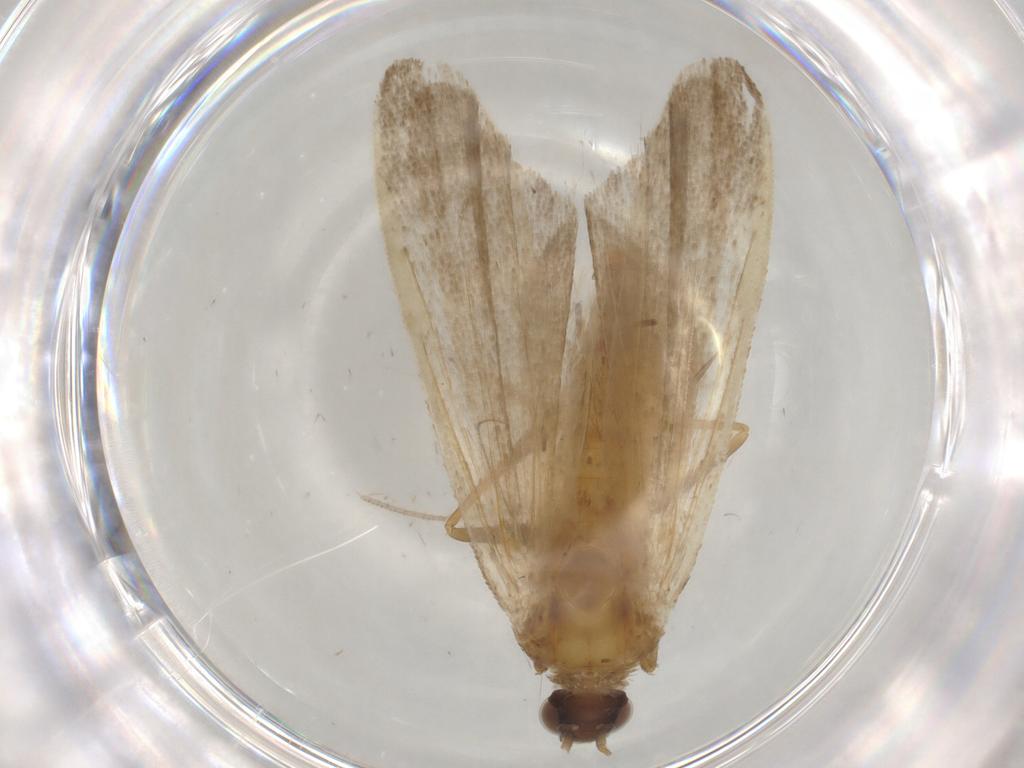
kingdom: Animalia
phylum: Arthropoda
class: Insecta
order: Lepidoptera
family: Noctuidae
